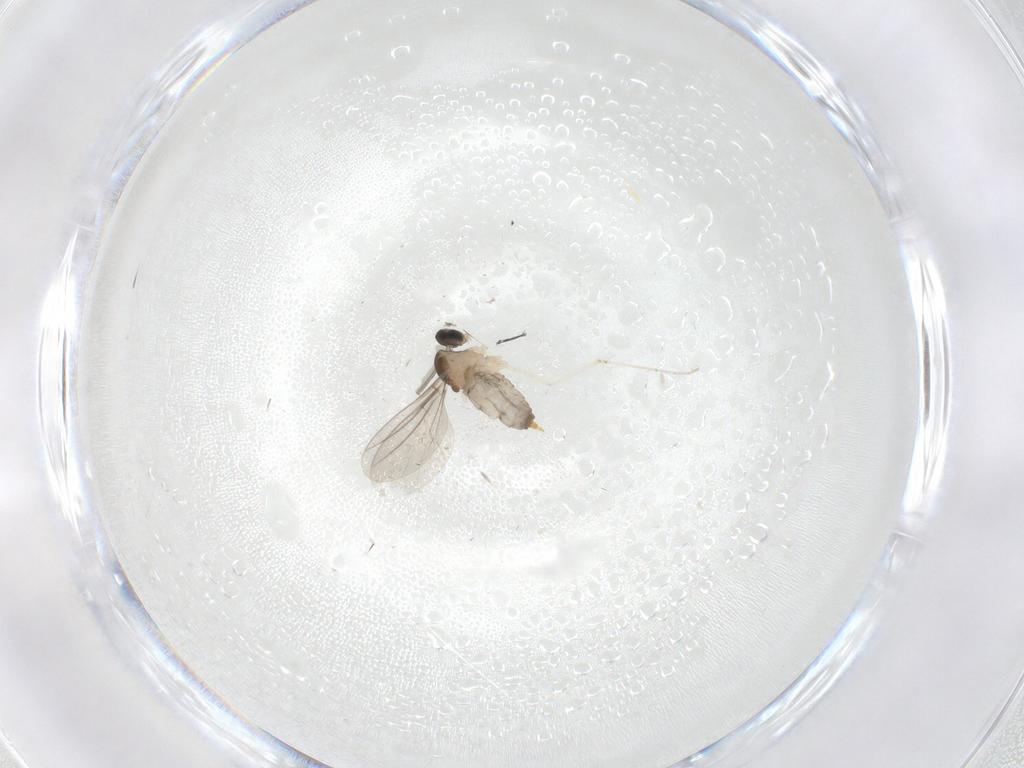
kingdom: Animalia
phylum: Arthropoda
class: Insecta
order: Diptera
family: Cecidomyiidae
